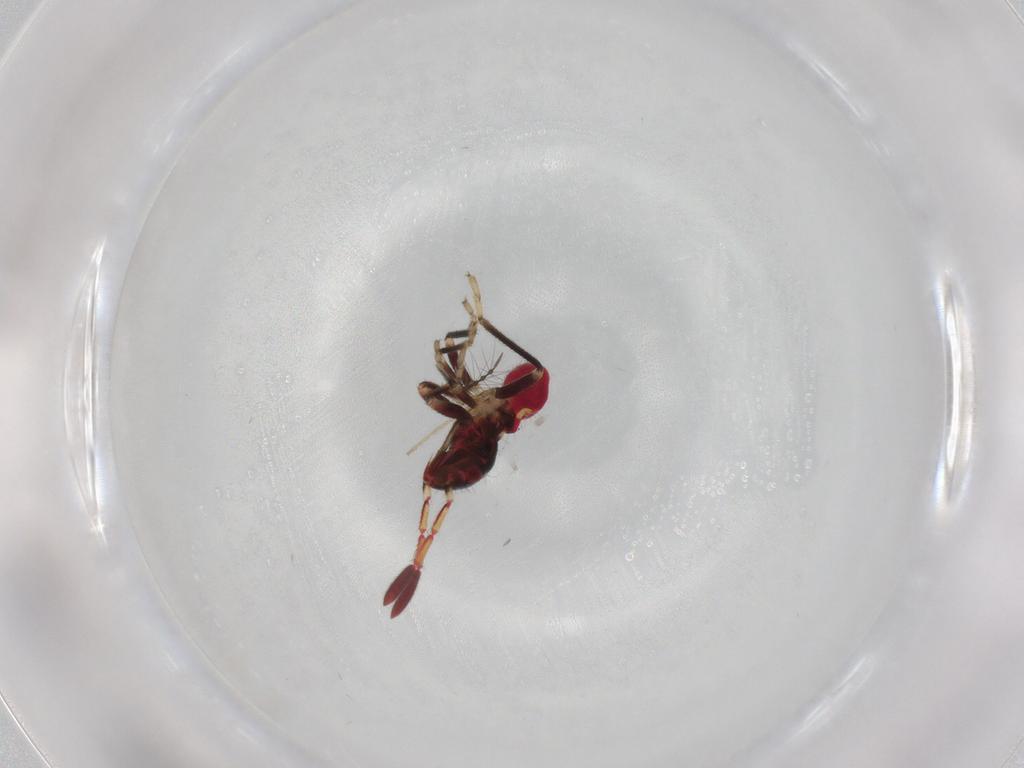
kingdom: Animalia
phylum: Arthropoda
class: Insecta
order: Hemiptera
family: Rhyparochromidae
